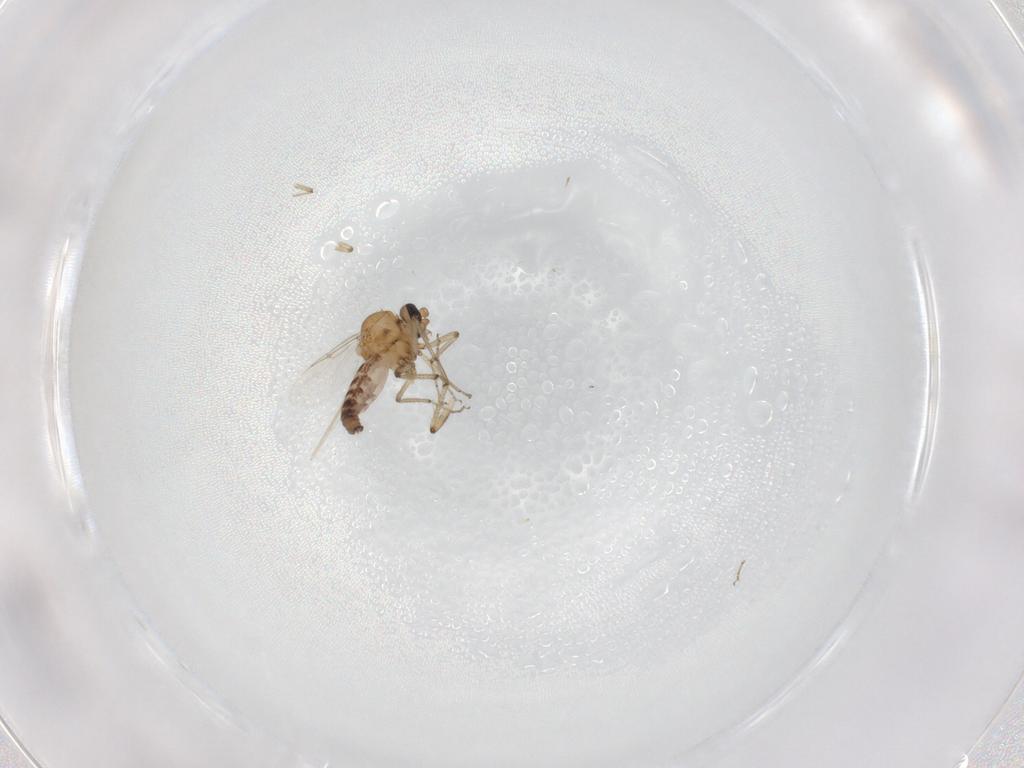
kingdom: Animalia
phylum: Arthropoda
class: Insecta
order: Diptera
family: Ceratopogonidae
